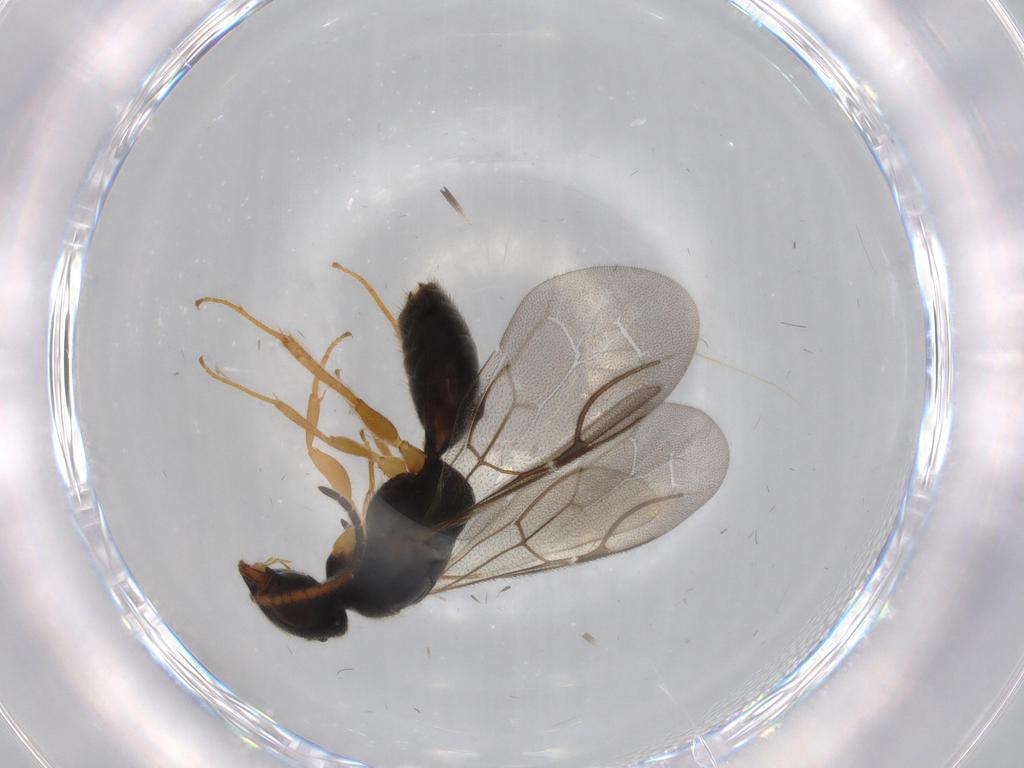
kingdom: Animalia
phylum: Arthropoda
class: Insecta
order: Hymenoptera
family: Bethylidae
